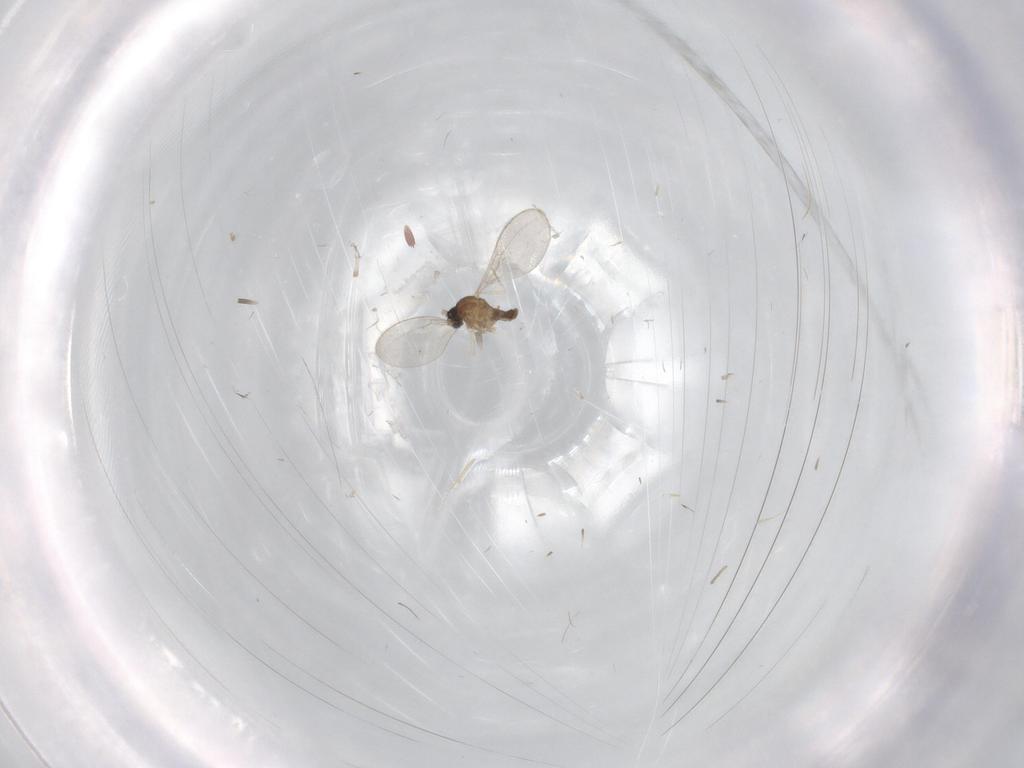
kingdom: Animalia
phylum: Arthropoda
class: Insecta
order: Diptera
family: Cecidomyiidae
